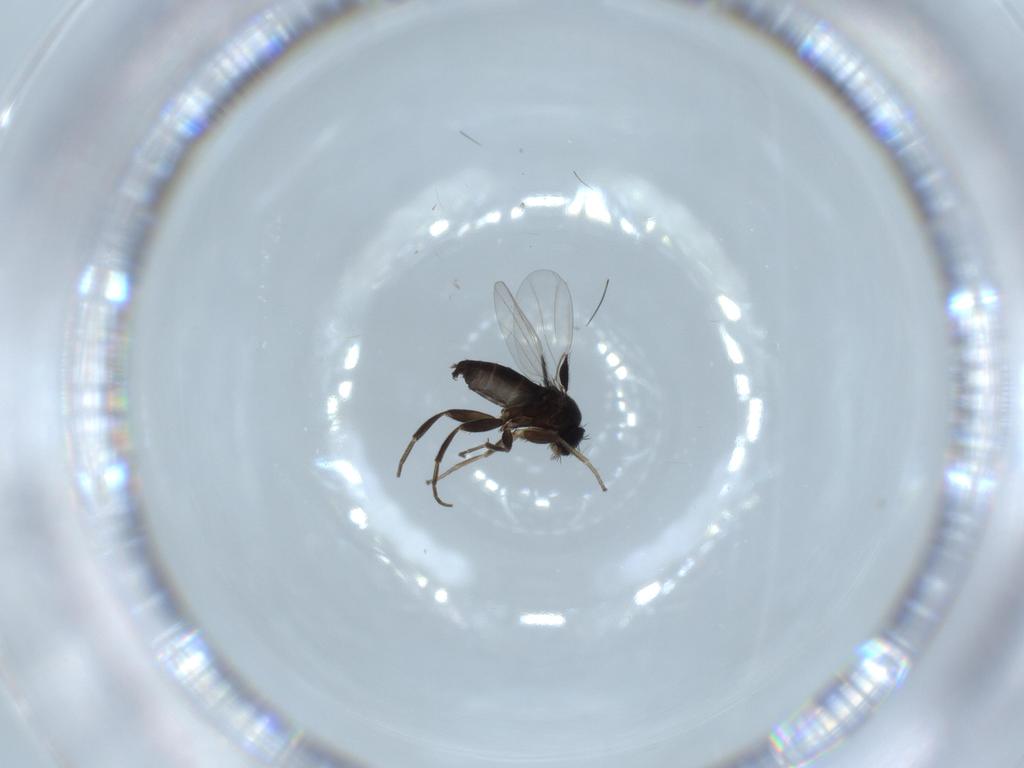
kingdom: Animalia
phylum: Arthropoda
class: Insecta
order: Diptera
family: Phoridae
